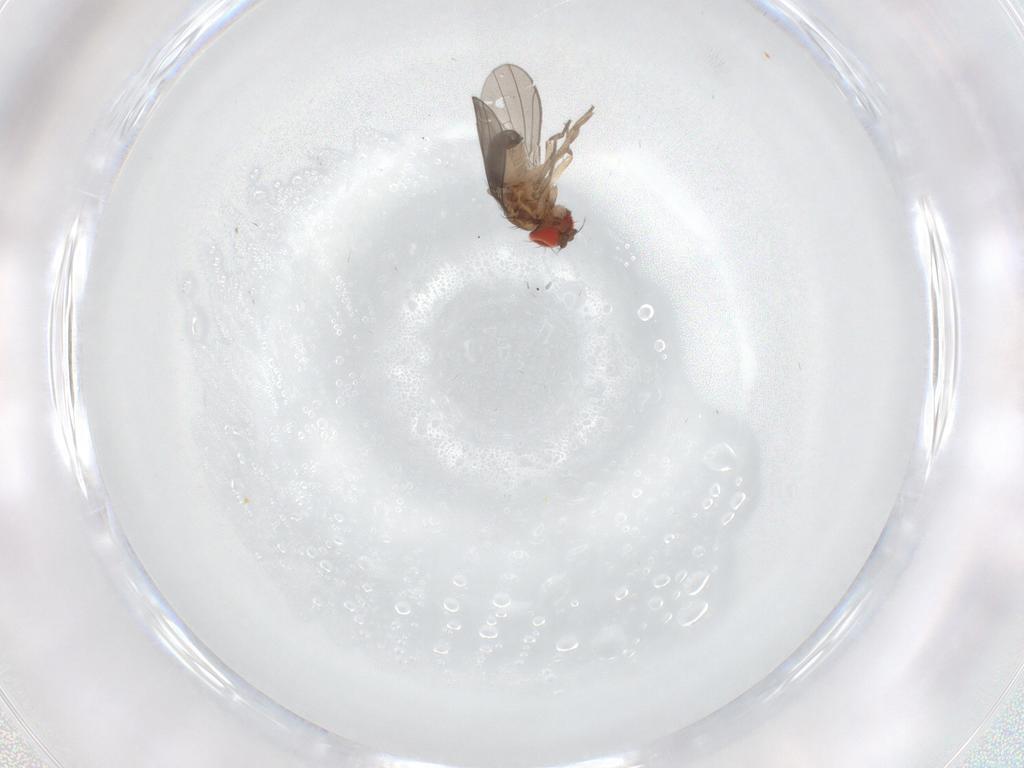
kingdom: Animalia
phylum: Arthropoda
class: Insecta
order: Diptera
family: Drosophilidae
